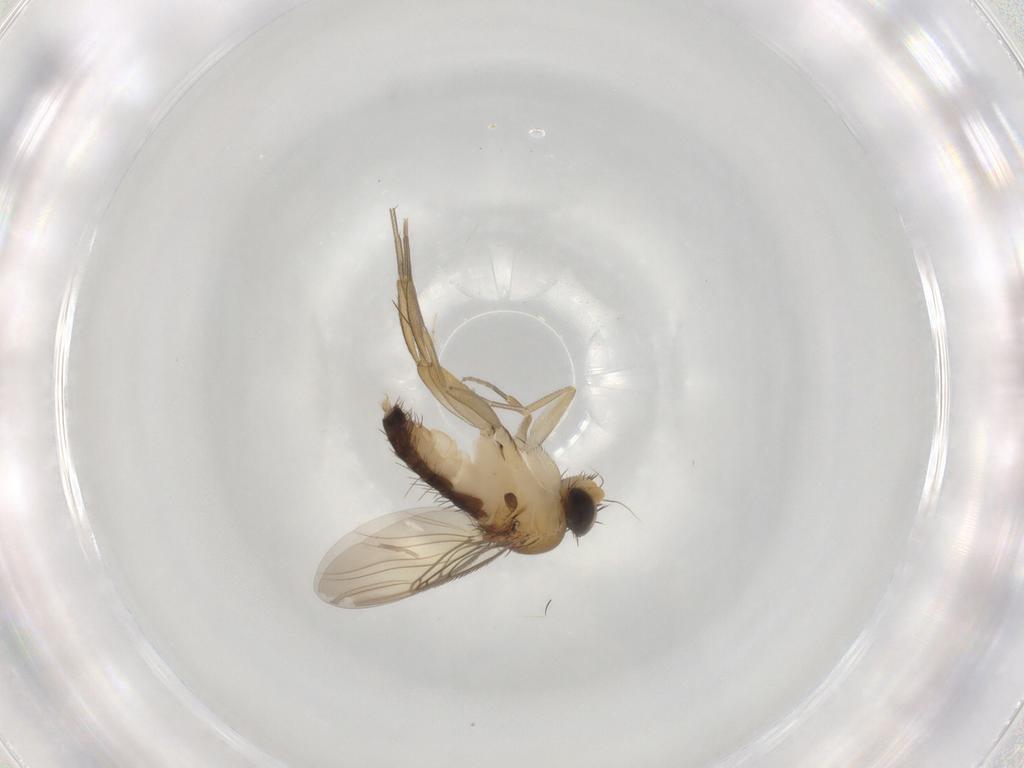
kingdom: Animalia
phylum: Arthropoda
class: Insecta
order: Diptera
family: Phoridae
